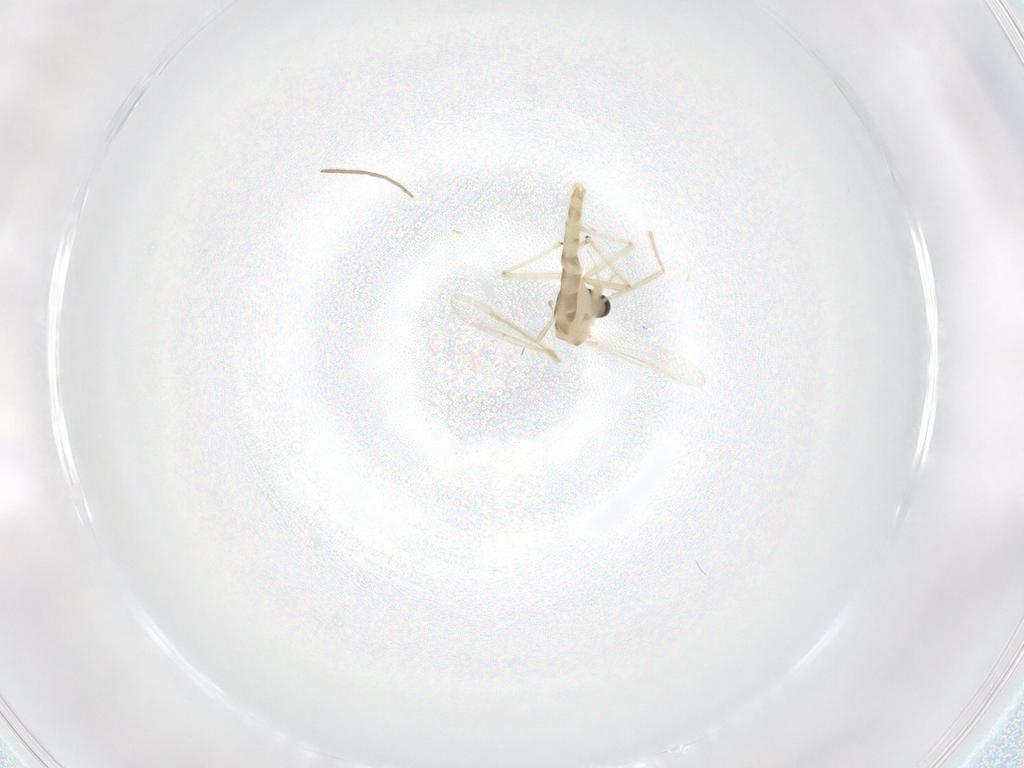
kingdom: Animalia
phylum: Arthropoda
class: Insecta
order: Diptera
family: Chironomidae
